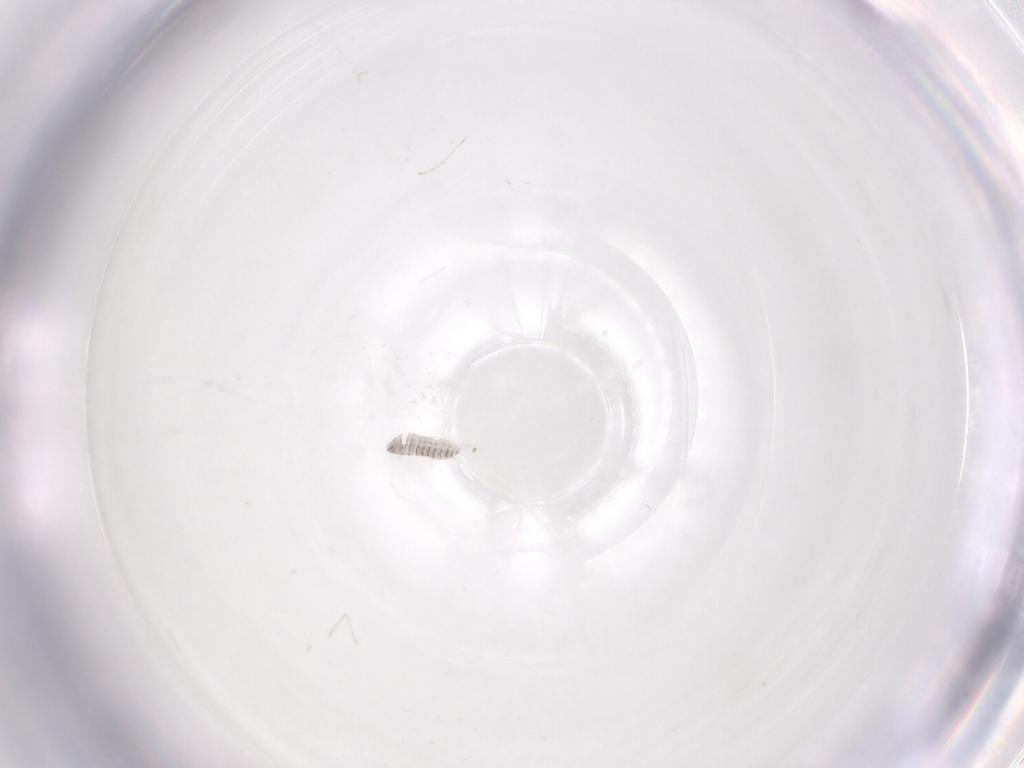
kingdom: Animalia
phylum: Arthropoda
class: Insecta
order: Diptera
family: Cecidomyiidae
